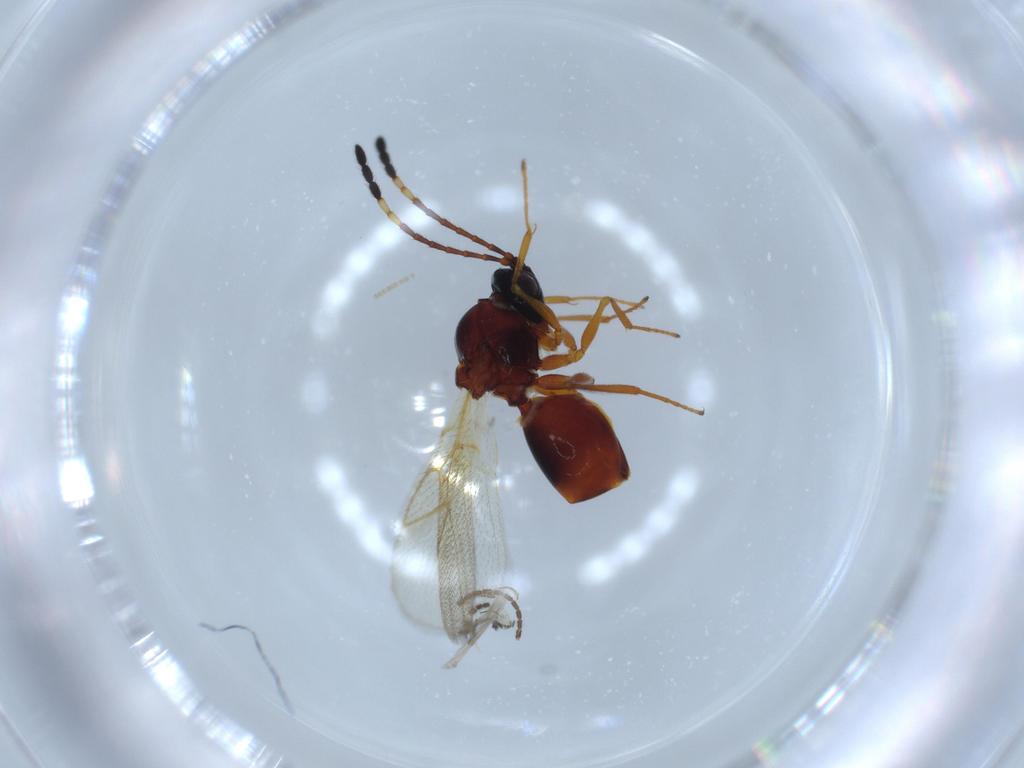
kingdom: Animalia
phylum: Arthropoda
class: Insecta
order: Hymenoptera
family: Figitidae
